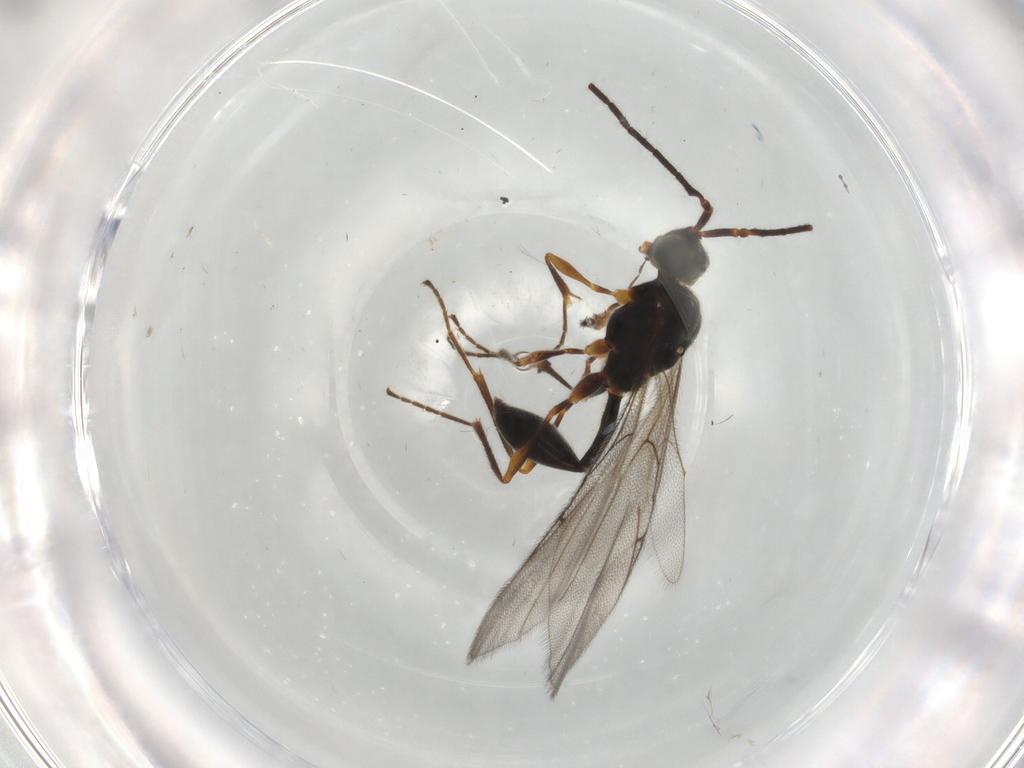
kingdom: Animalia
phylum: Arthropoda
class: Insecta
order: Hymenoptera
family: Diapriidae
